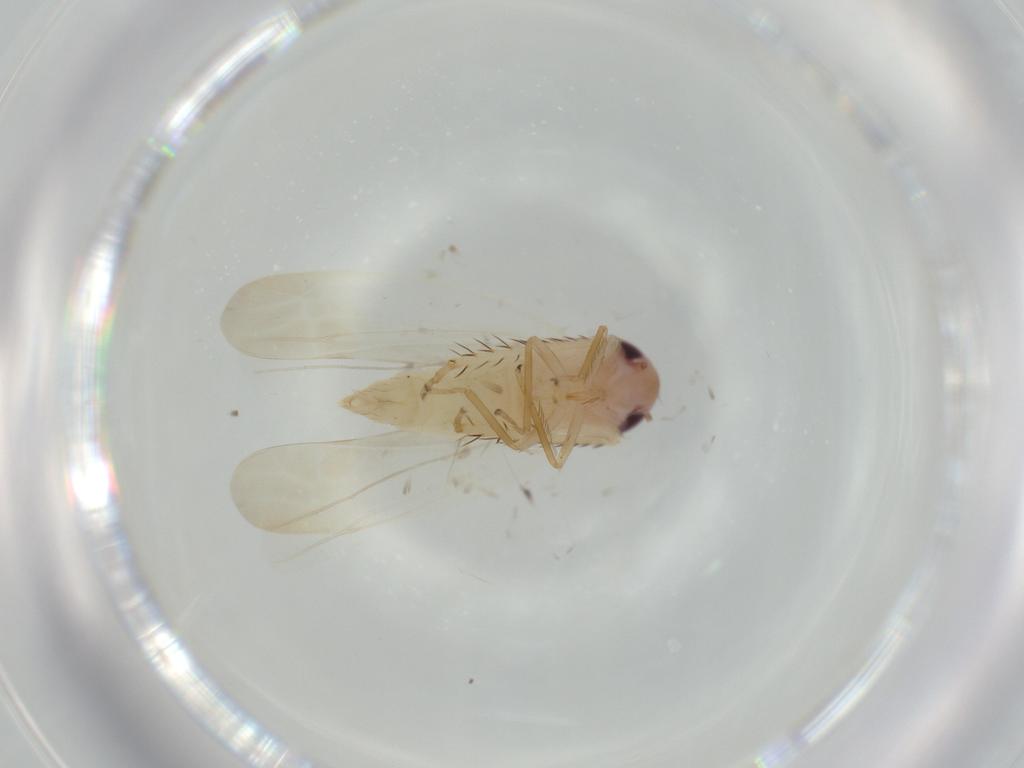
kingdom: Animalia
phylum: Arthropoda
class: Insecta
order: Hemiptera
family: Cicadellidae
